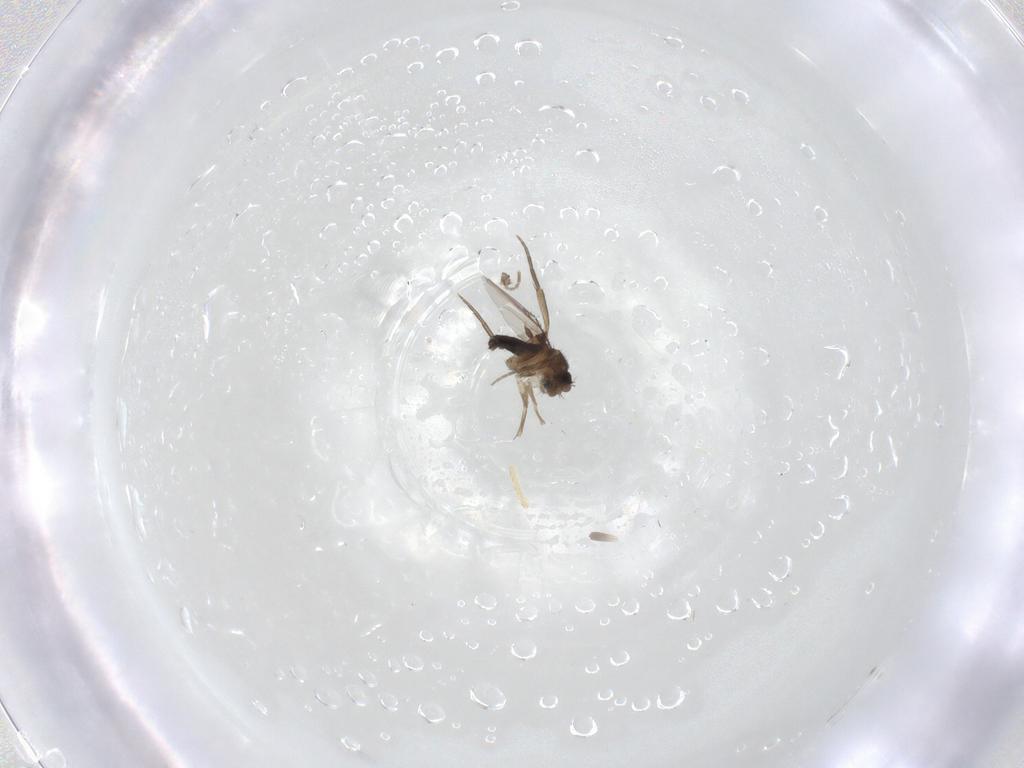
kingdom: Animalia
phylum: Arthropoda
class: Insecta
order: Diptera
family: Phoridae
